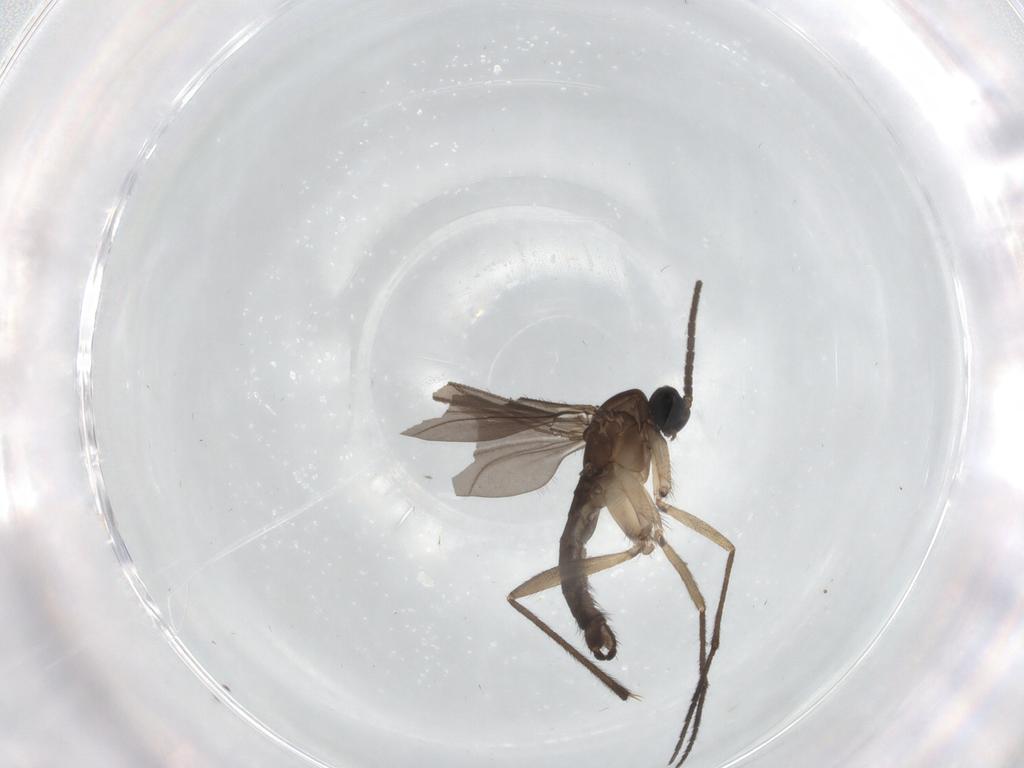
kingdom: Animalia
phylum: Arthropoda
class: Insecta
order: Diptera
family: Sciaridae
